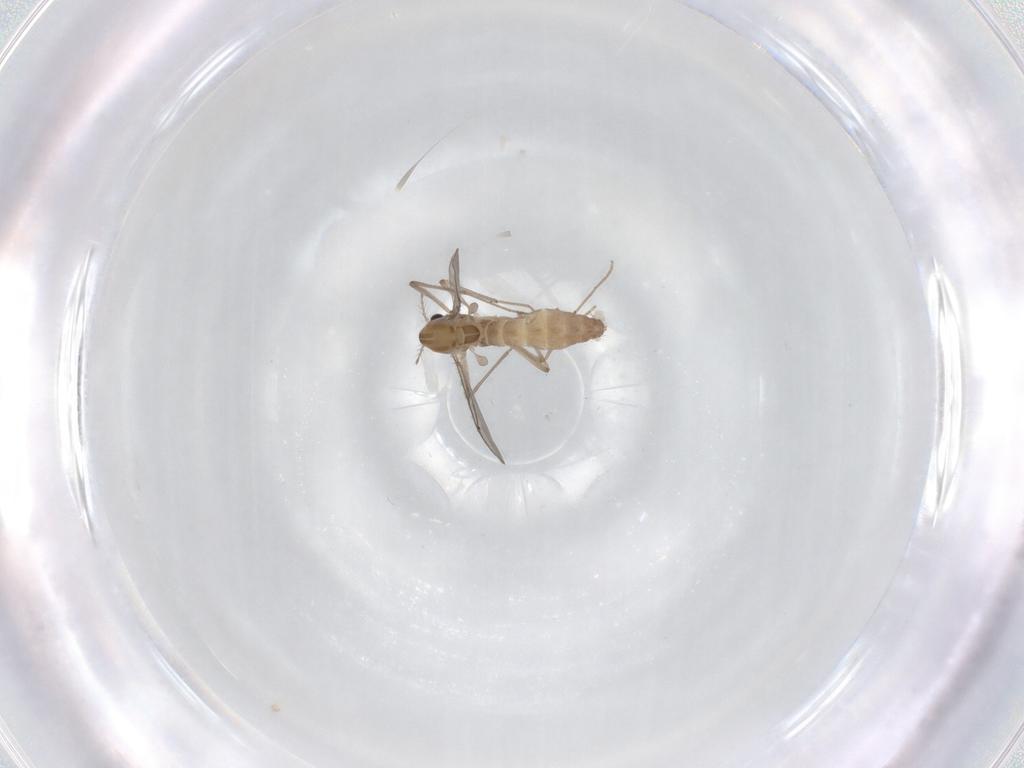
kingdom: Animalia
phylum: Arthropoda
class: Insecta
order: Diptera
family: Chironomidae
